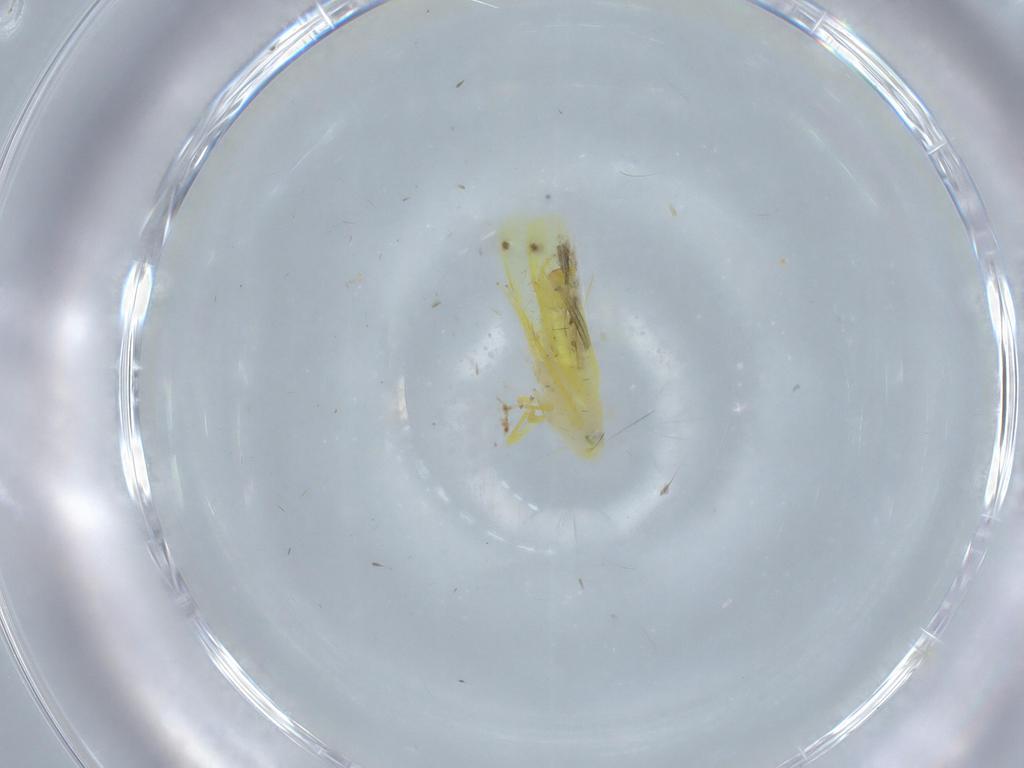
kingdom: Animalia
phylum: Arthropoda
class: Insecta
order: Hemiptera
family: Cicadellidae
